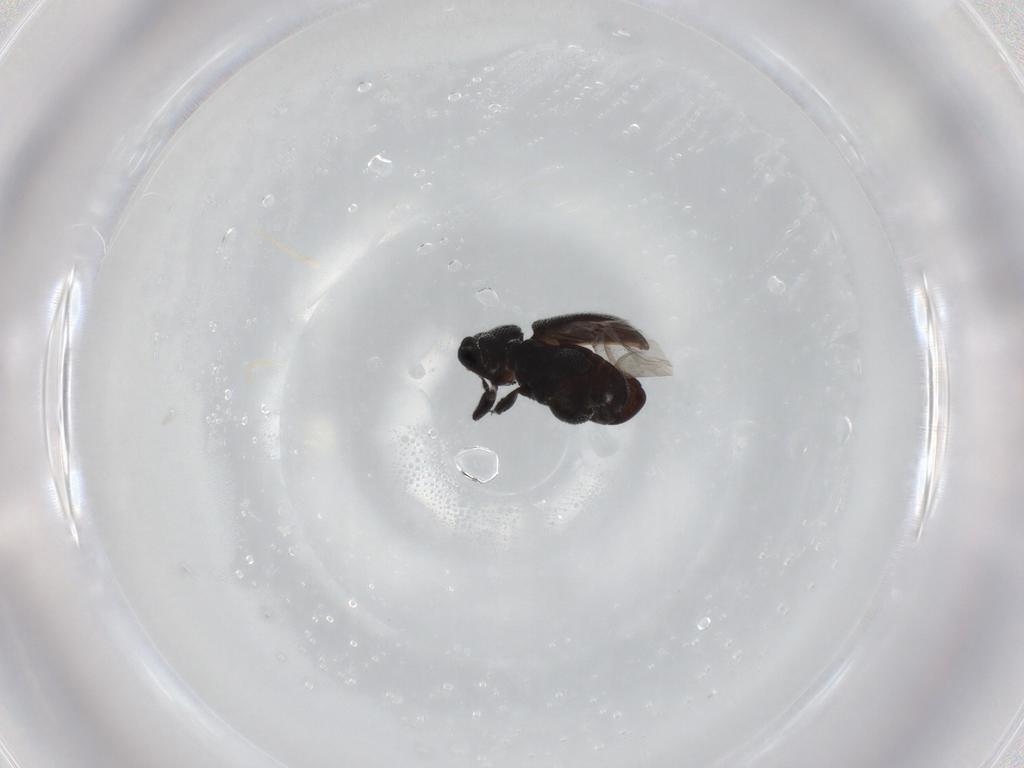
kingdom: Animalia
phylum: Arthropoda
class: Insecta
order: Coleoptera
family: Curculionidae
